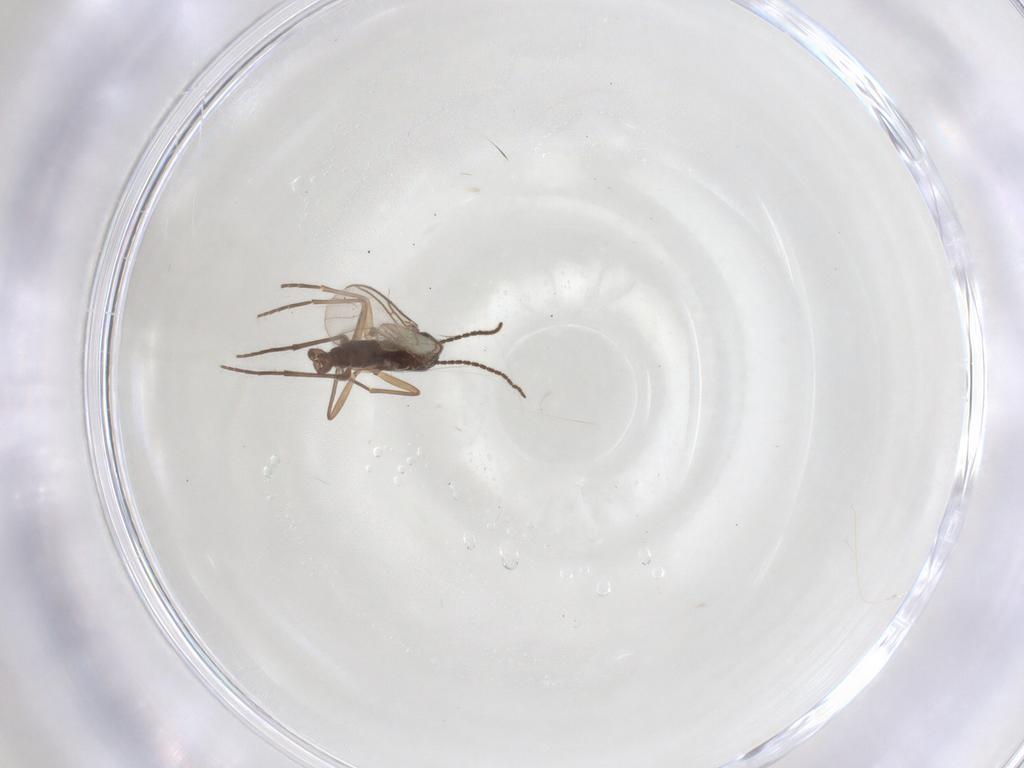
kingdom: Animalia
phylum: Arthropoda
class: Insecta
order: Diptera
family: Sciaridae
